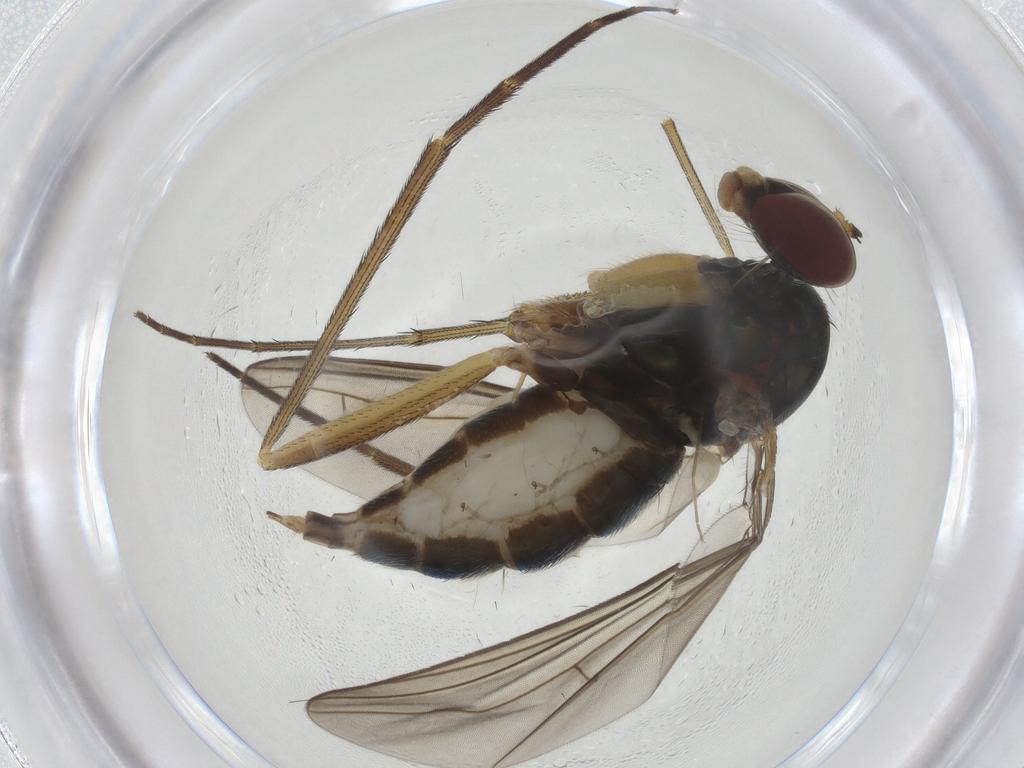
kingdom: Animalia
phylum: Arthropoda
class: Insecta
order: Diptera
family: Dolichopodidae
